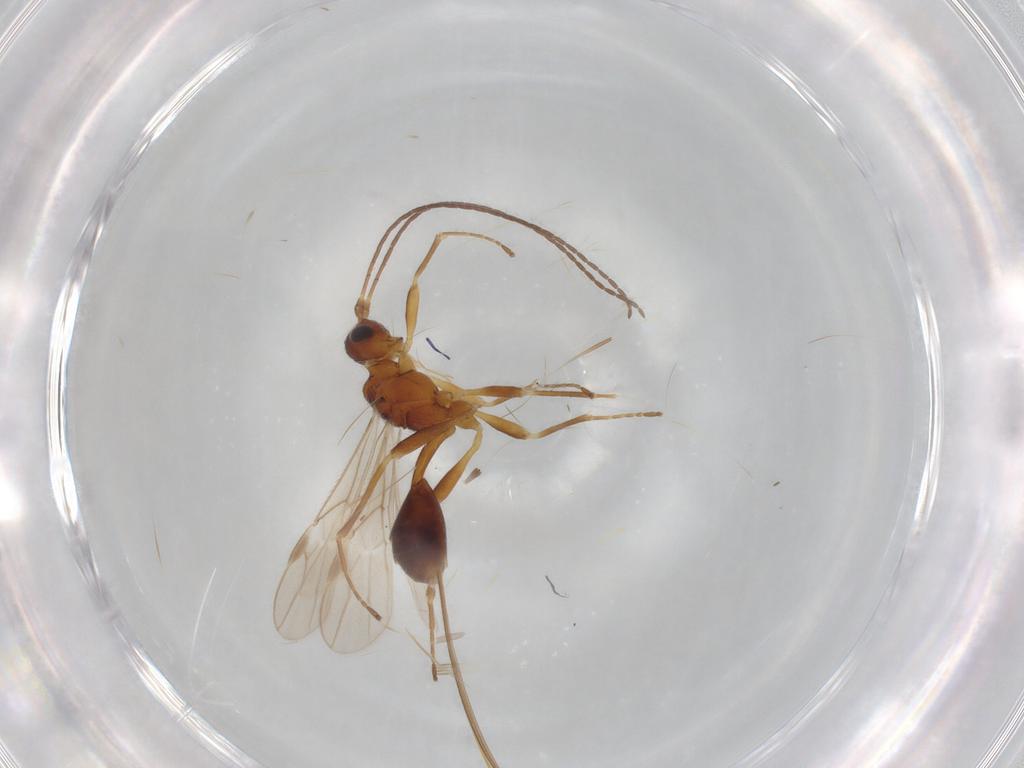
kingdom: Animalia
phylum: Arthropoda
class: Insecta
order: Hymenoptera
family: Braconidae
